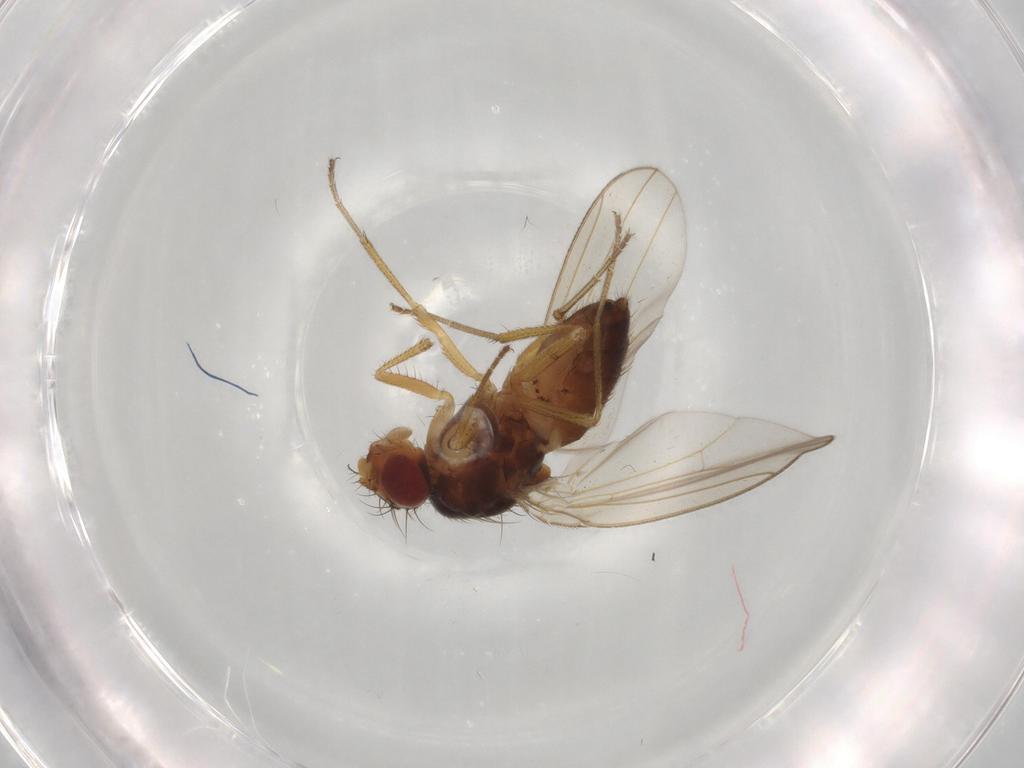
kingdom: Animalia
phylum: Arthropoda
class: Insecta
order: Diptera
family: Drosophilidae
